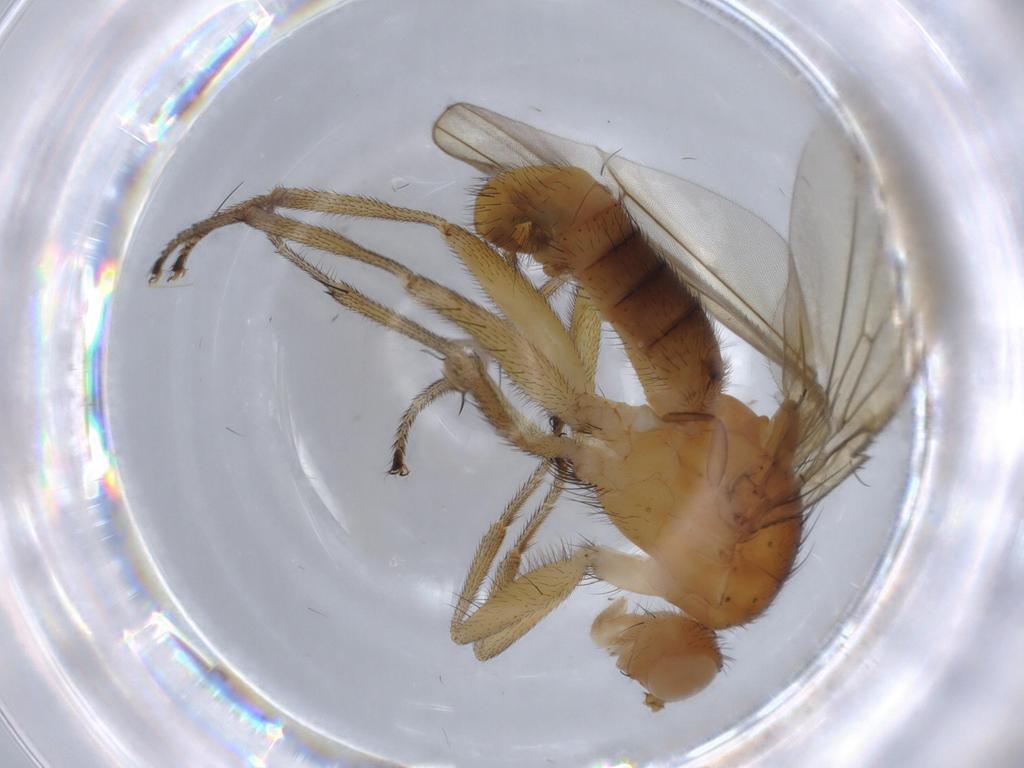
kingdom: Animalia
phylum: Arthropoda
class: Insecta
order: Diptera
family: Heleomyzidae
